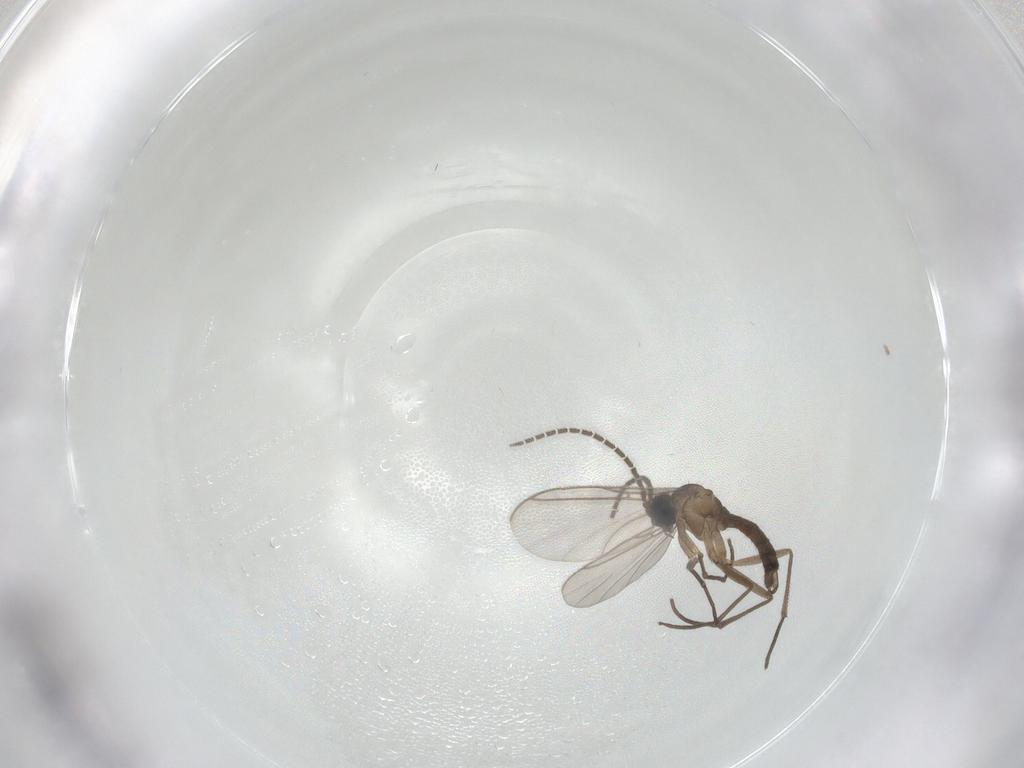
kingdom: Animalia
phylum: Arthropoda
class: Insecta
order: Diptera
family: Sciaridae
